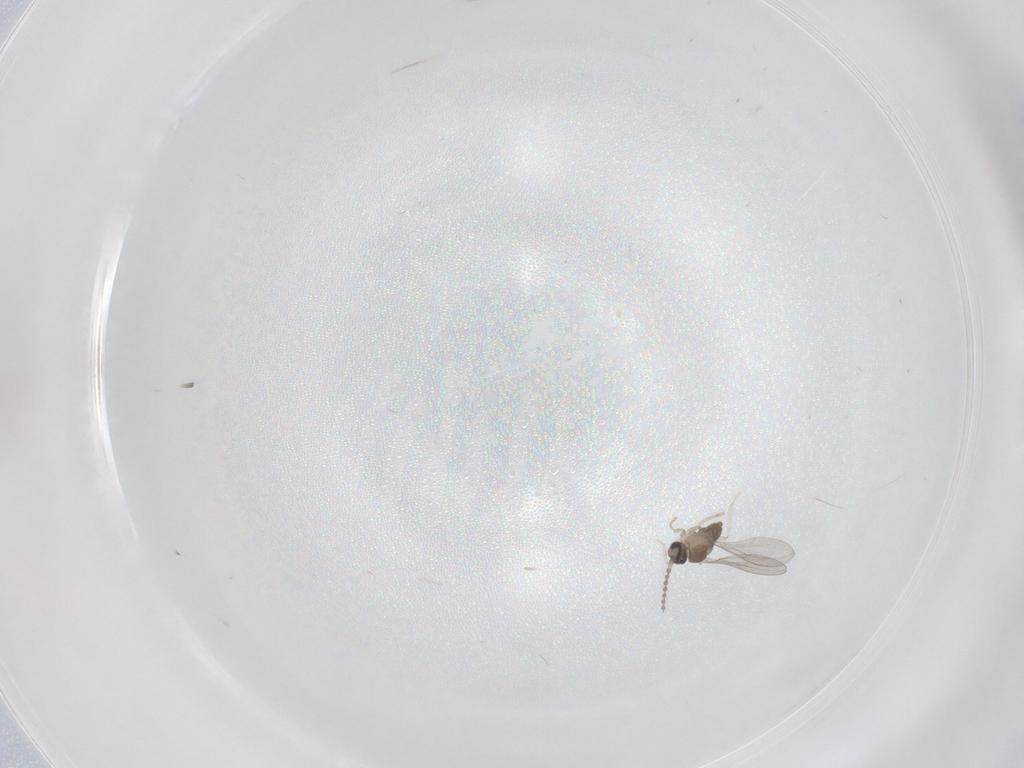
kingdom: Animalia
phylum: Arthropoda
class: Insecta
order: Diptera
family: Cecidomyiidae
